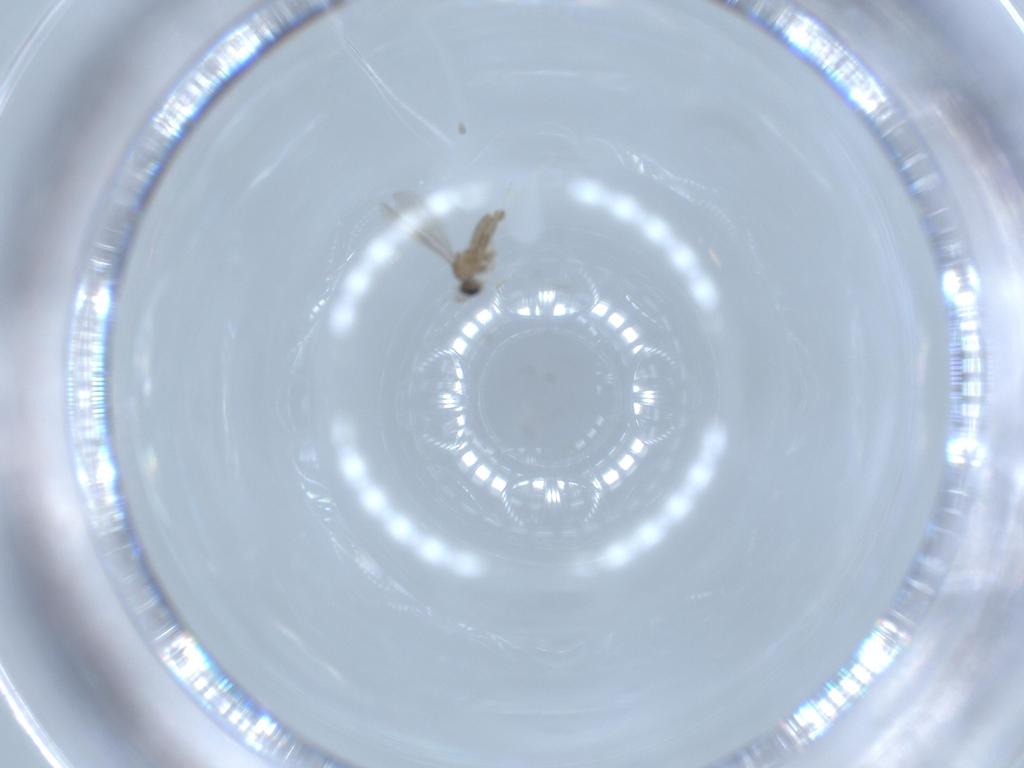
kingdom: Animalia
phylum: Arthropoda
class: Insecta
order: Diptera
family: Cecidomyiidae
